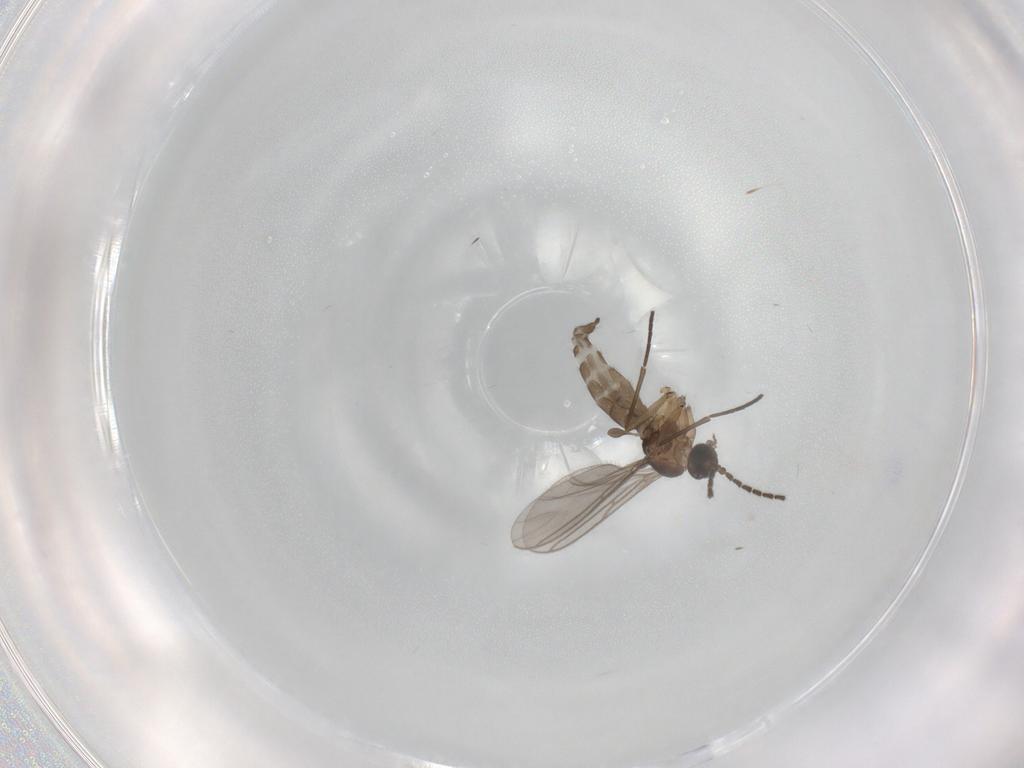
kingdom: Animalia
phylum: Arthropoda
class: Insecta
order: Diptera
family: Sciaridae
